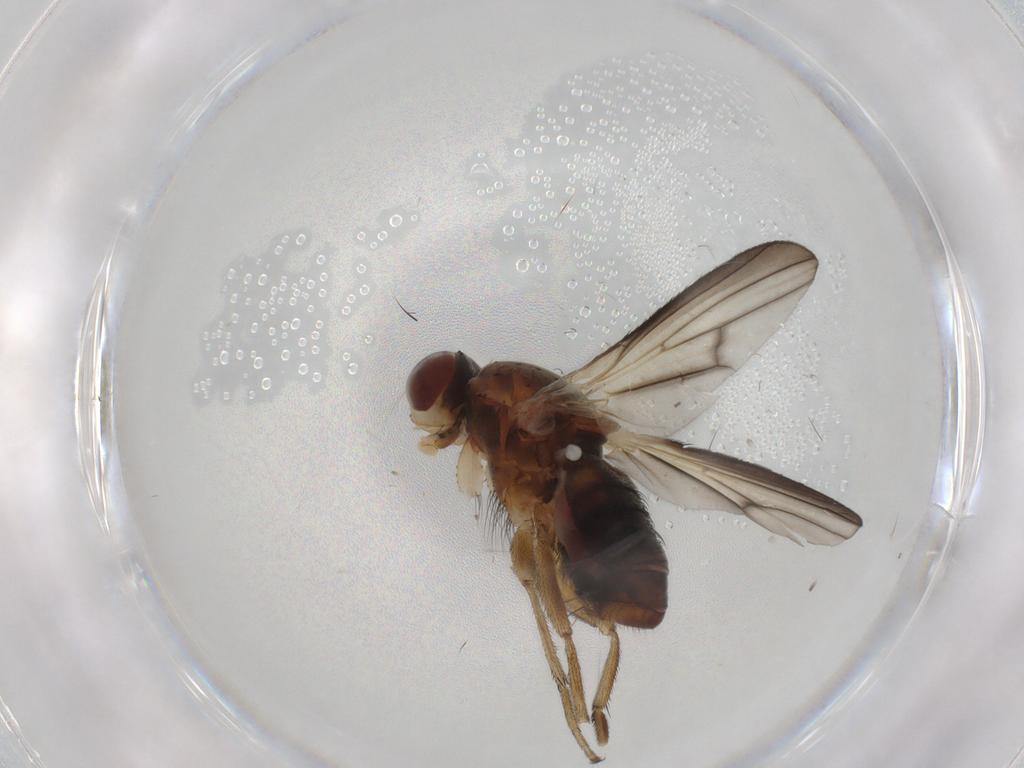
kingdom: Animalia
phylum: Arthropoda
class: Insecta
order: Diptera
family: Heleomyzidae
